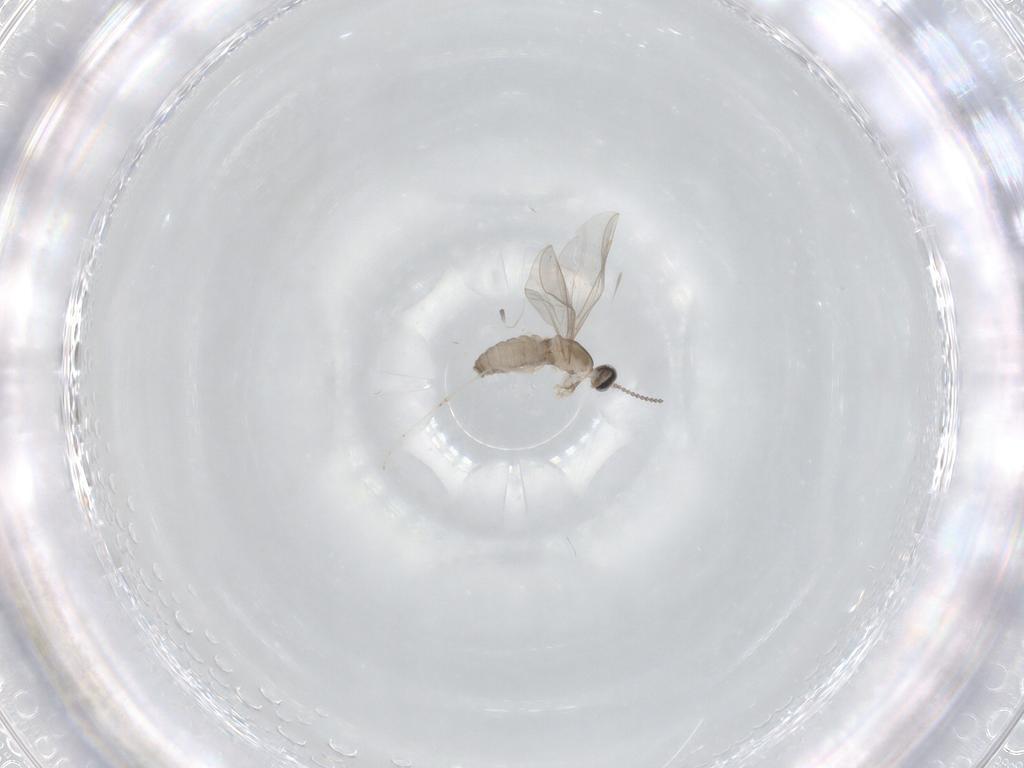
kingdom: Animalia
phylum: Arthropoda
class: Insecta
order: Diptera
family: Cecidomyiidae
